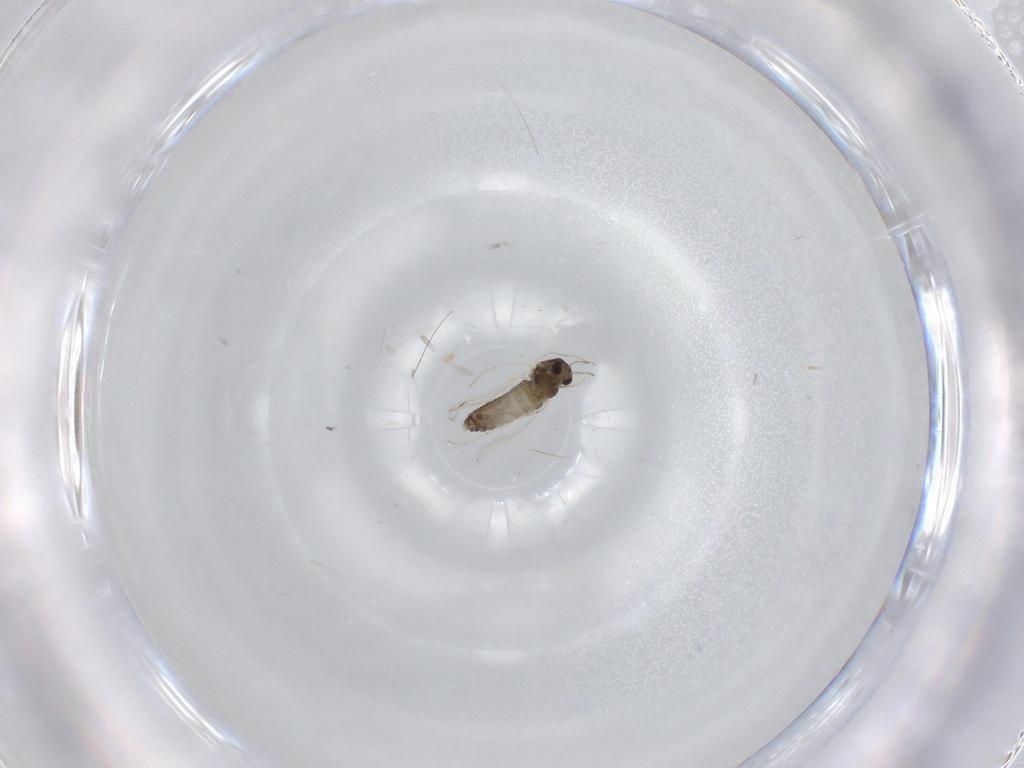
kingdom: Animalia
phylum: Arthropoda
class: Insecta
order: Diptera
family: Chironomidae
